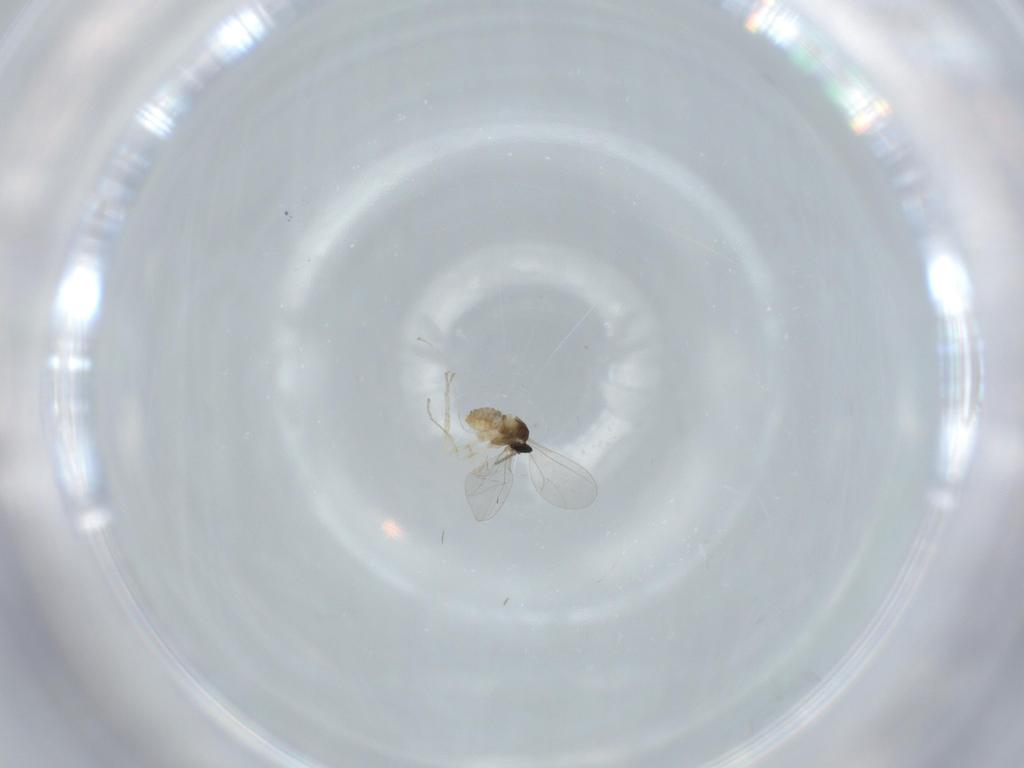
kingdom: Animalia
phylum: Arthropoda
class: Insecta
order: Diptera
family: Cecidomyiidae
